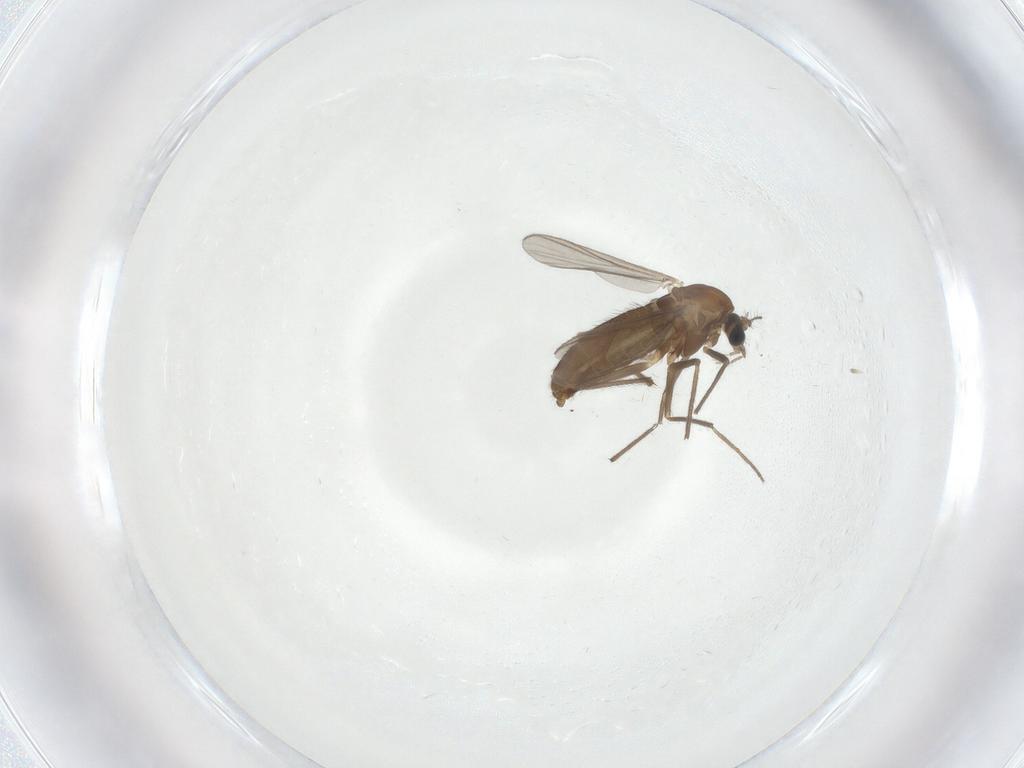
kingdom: Animalia
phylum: Arthropoda
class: Insecta
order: Diptera
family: Chironomidae
